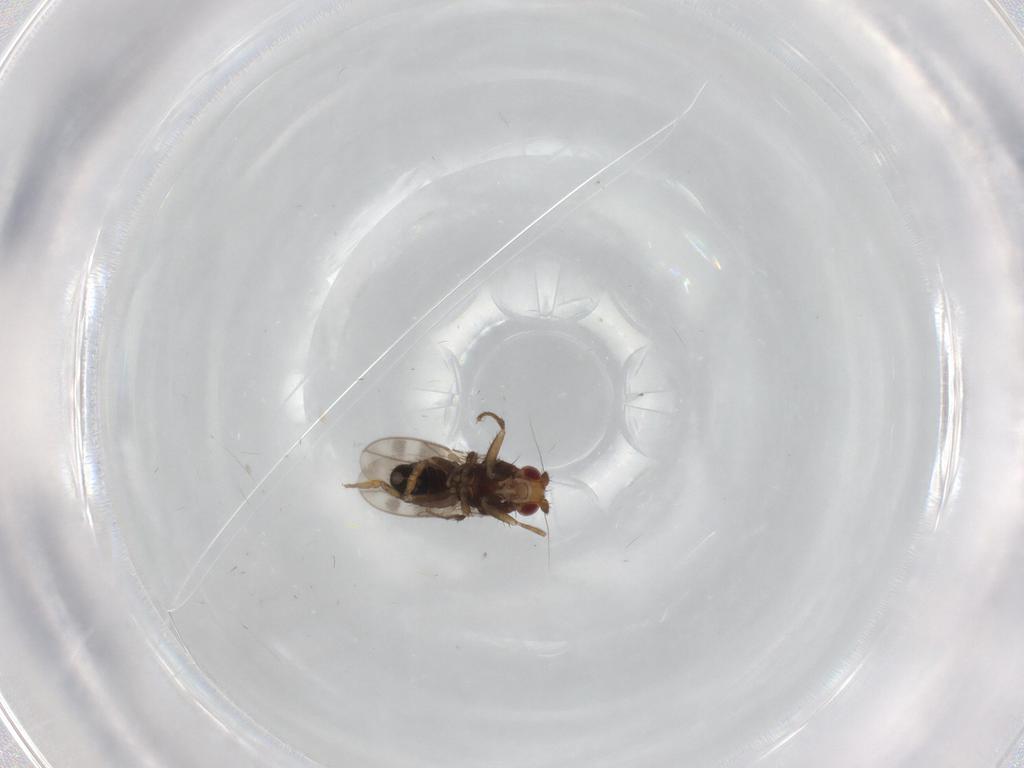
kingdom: Animalia
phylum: Arthropoda
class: Insecta
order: Diptera
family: Sphaeroceridae
